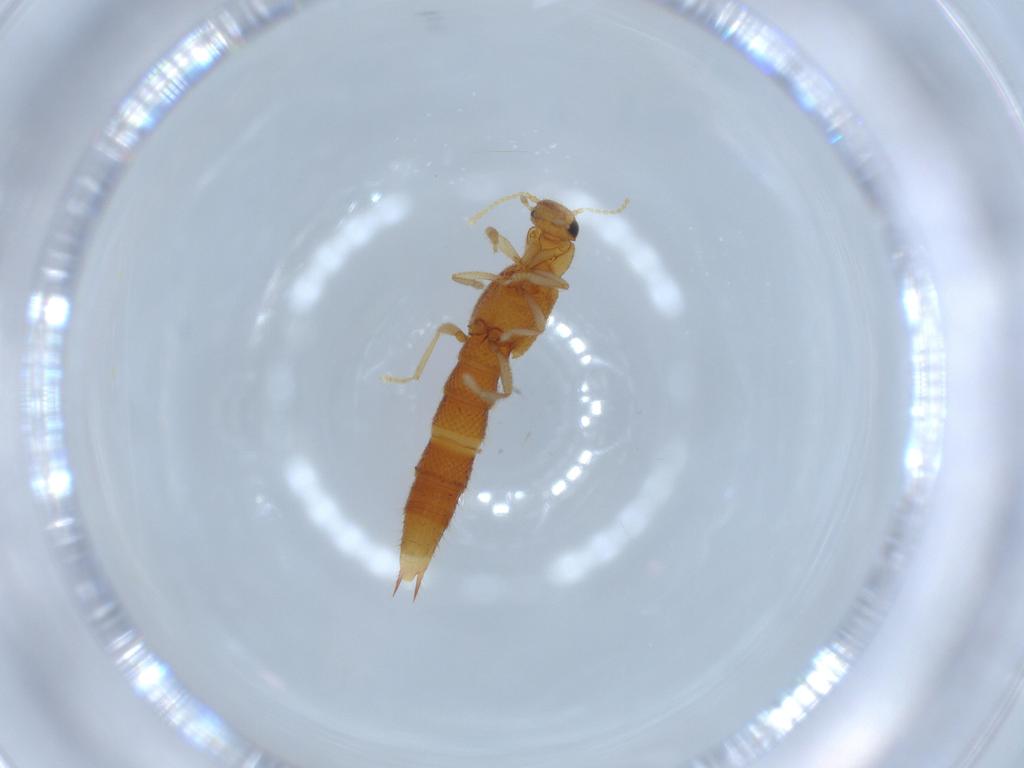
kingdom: Animalia
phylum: Arthropoda
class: Insecta
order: Coleoptera
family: Staphylinidae
